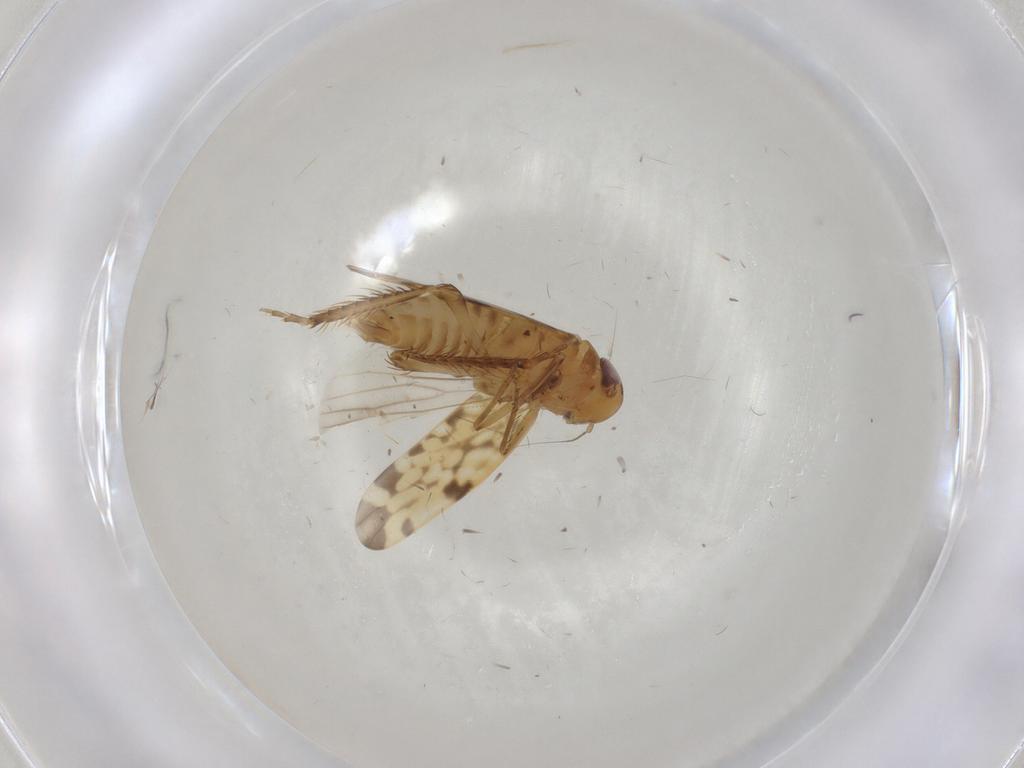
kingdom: Animalia
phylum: Arthropoda
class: Insecta
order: Hemiptera
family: Cicadellidae
